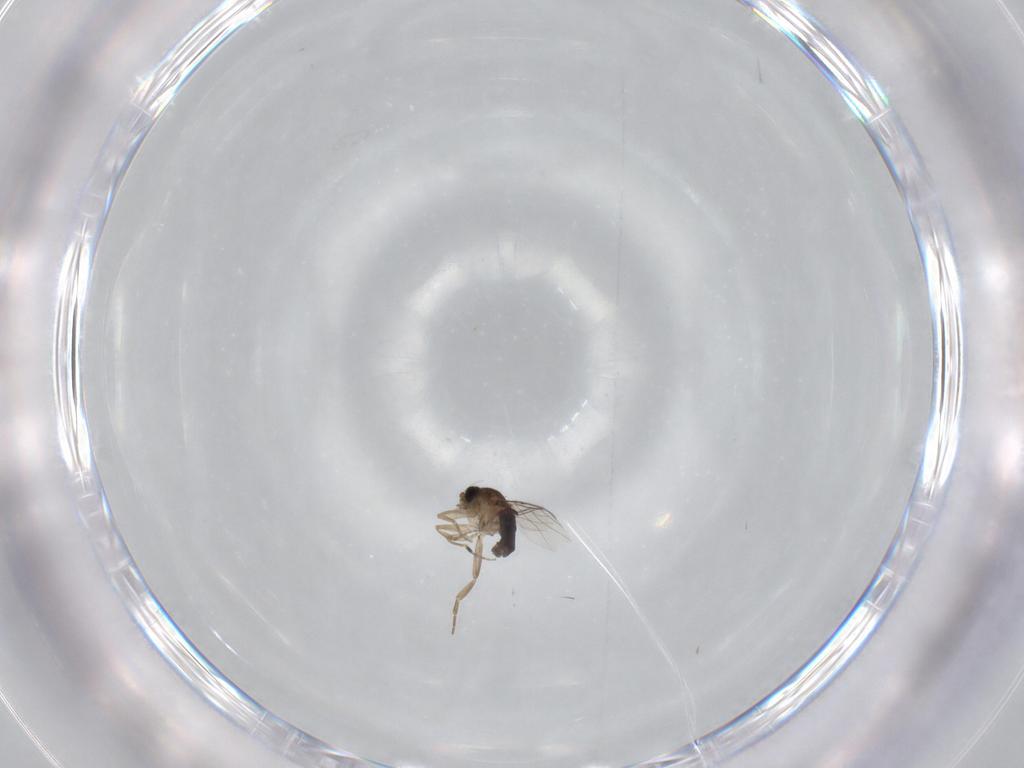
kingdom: Animalia
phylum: Arthropoda
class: Insecta
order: Diptera
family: Phoridae
